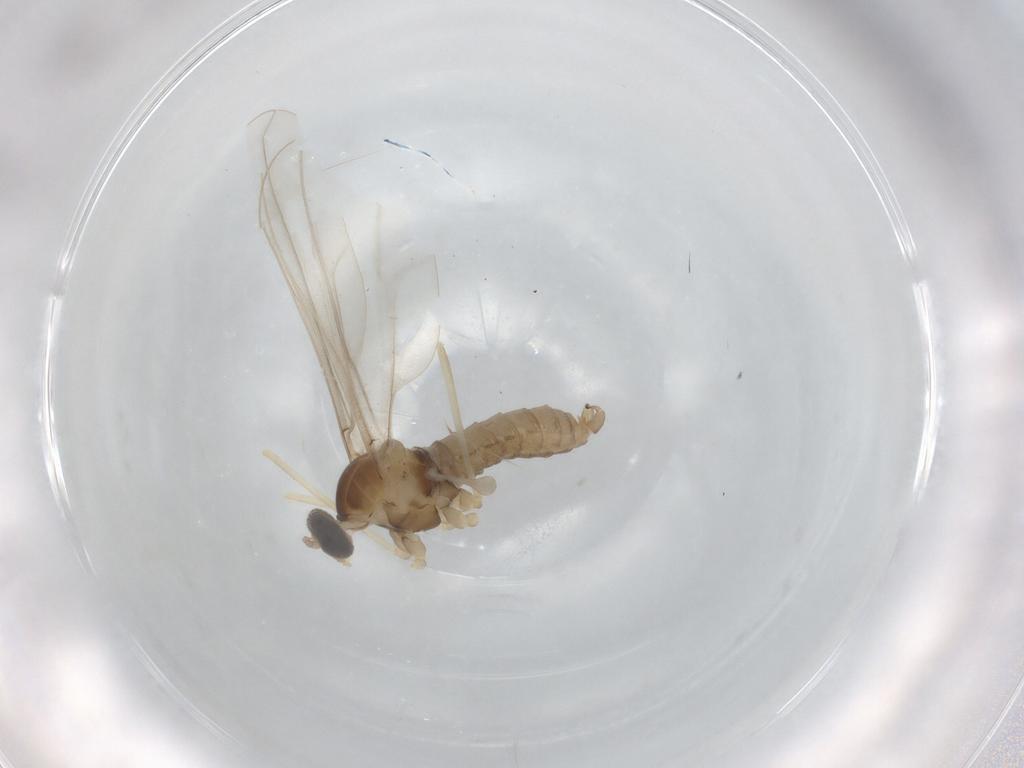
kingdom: Animalia
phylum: Arthropoda
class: Insecta
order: Diptera
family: Cecidomyiidae
